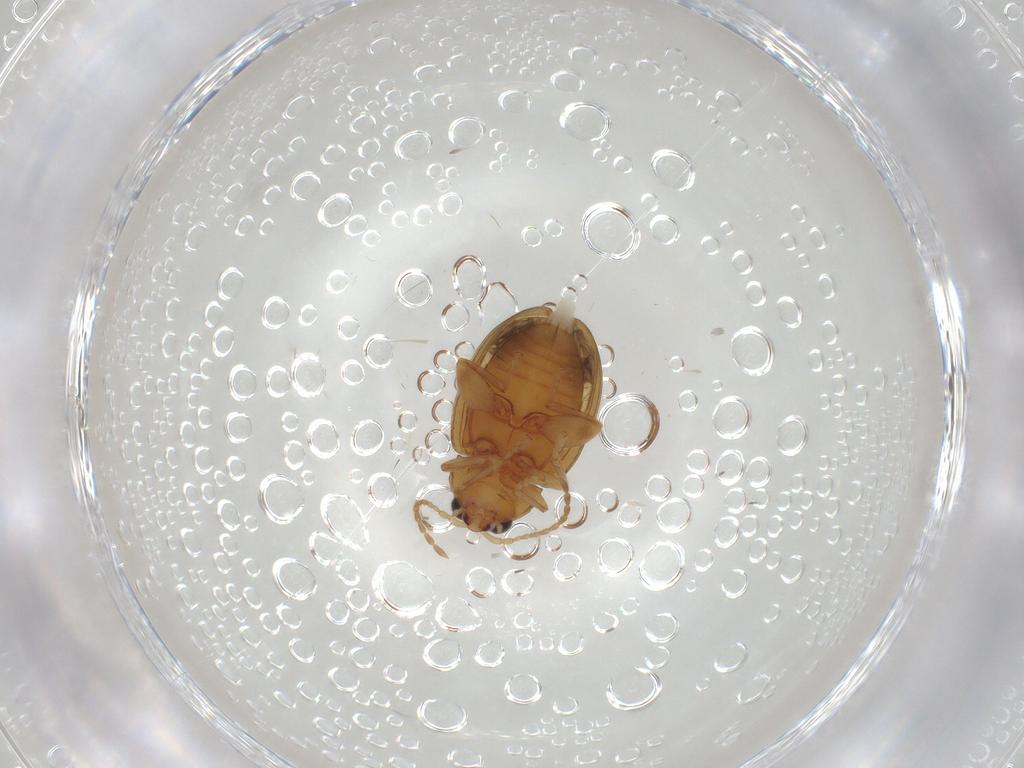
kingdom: Animalia
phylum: Arthropoda
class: Insecta
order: Coleoptera
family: Chrysomelidae
